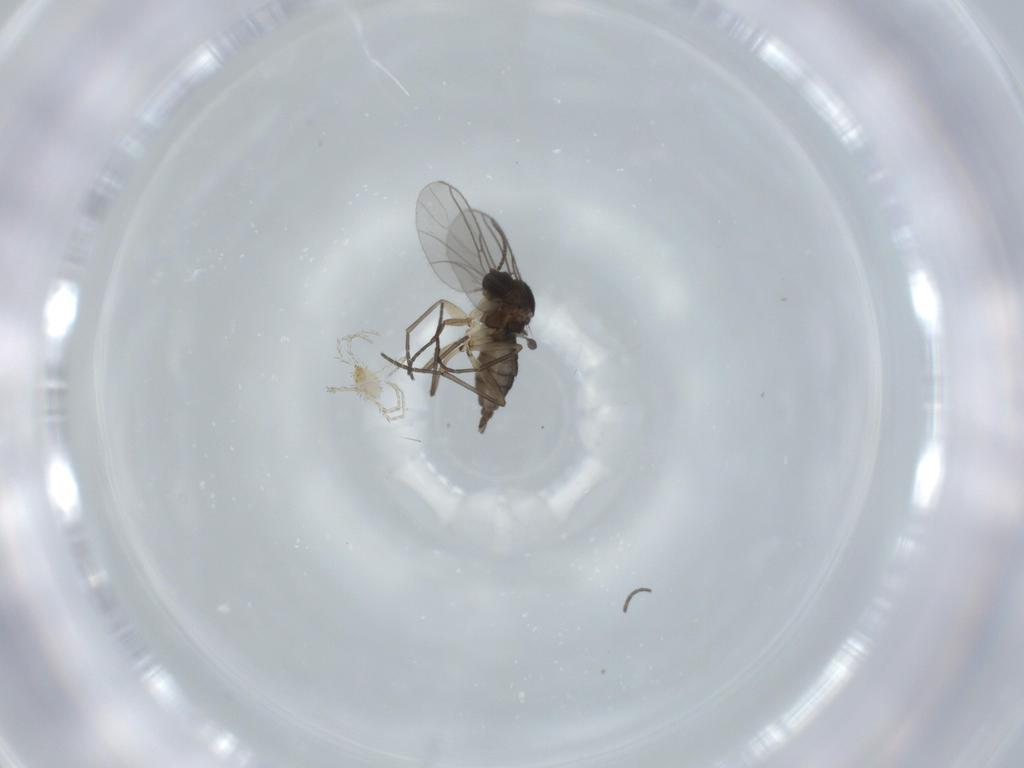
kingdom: Animalia
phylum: Arthropoda
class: Insecta
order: Diptera
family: Sciaridae
